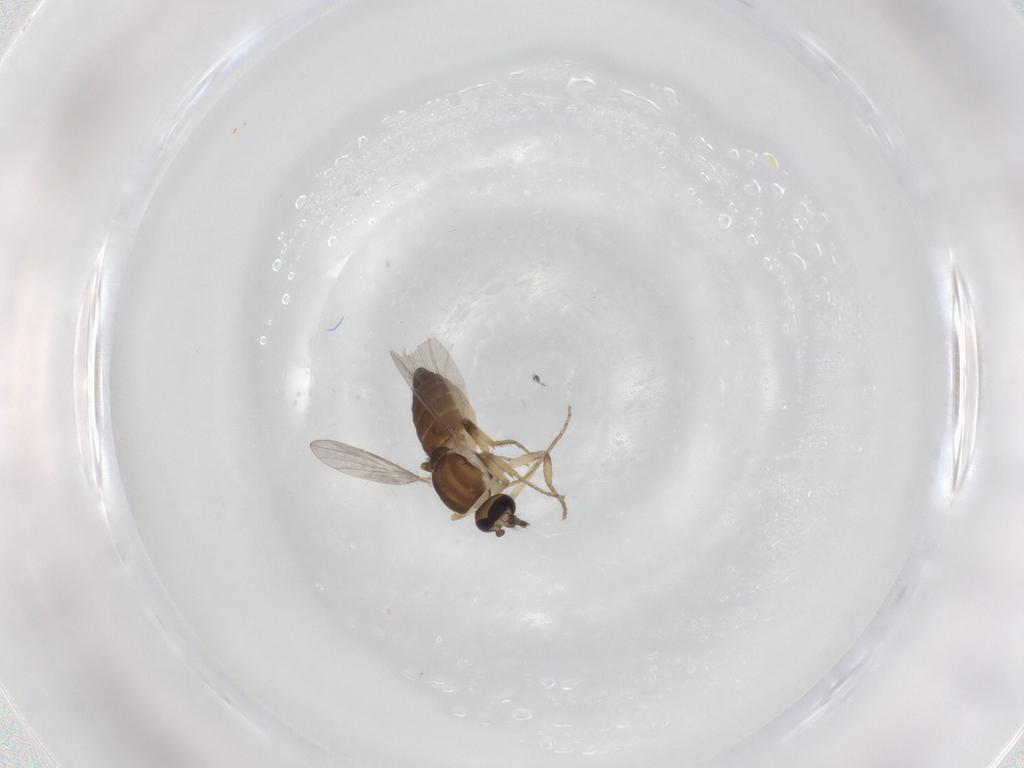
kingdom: Animalia
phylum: Arthropoda
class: Insecta
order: Diptera
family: Ceratopogonidae
